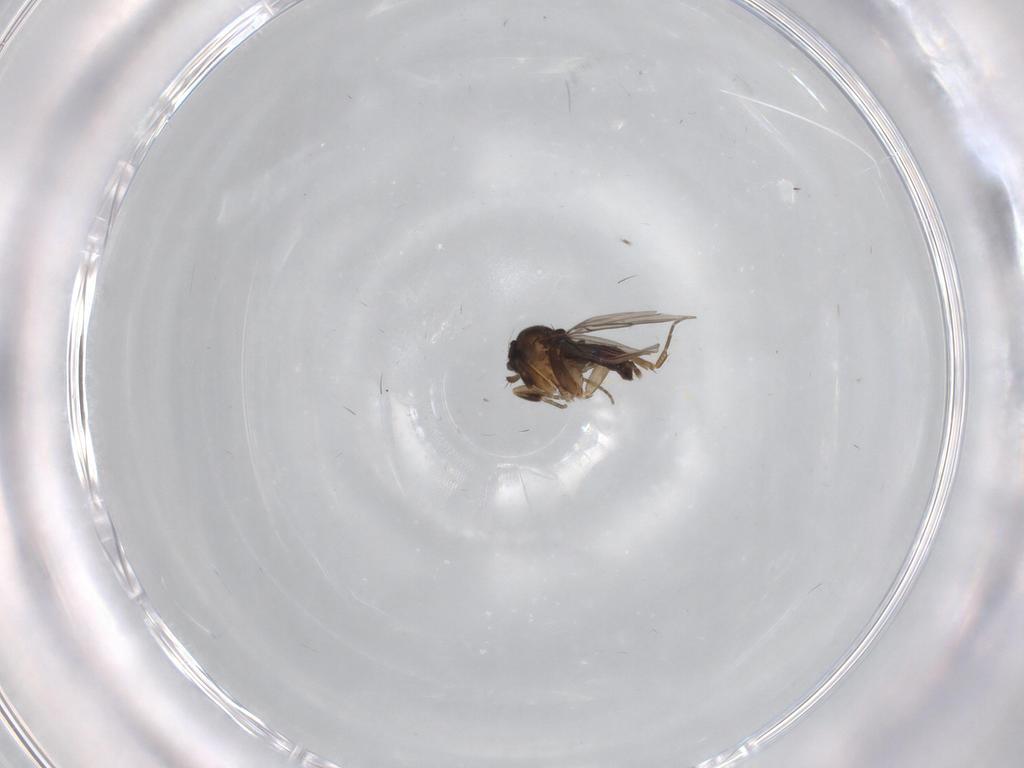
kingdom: Animalia
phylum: Arthropoda
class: Insecta
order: Diptera
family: Phoridae
